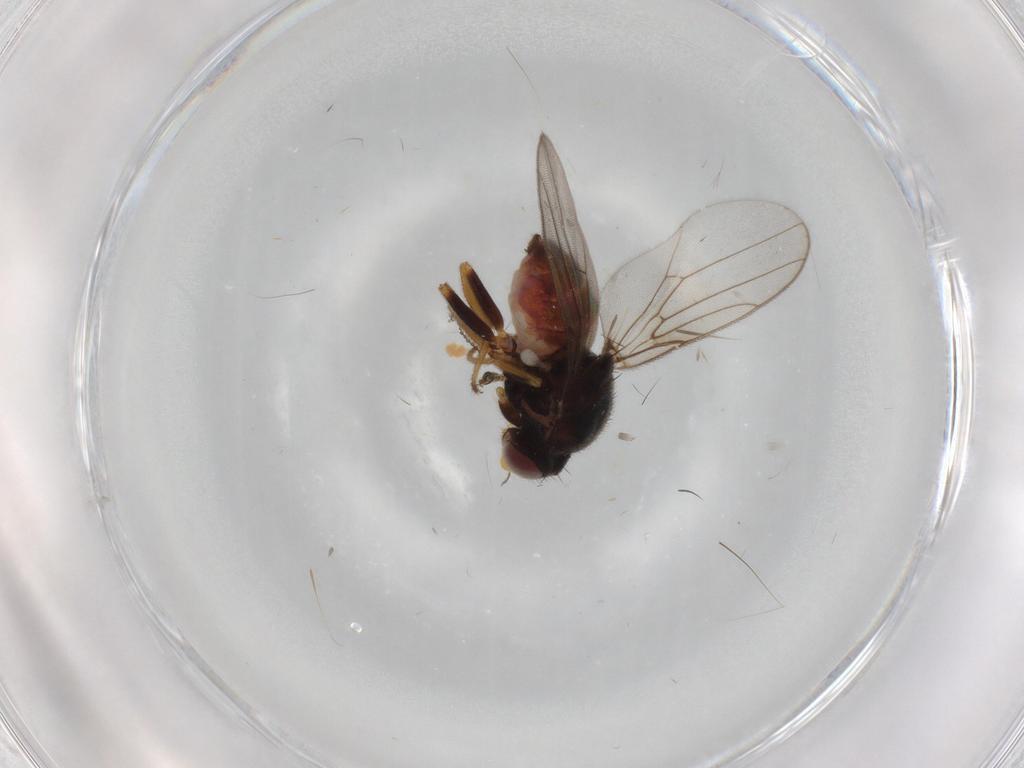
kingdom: Animalia
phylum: Arthropoda
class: Insecta
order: Diptera
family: Chloropidae
